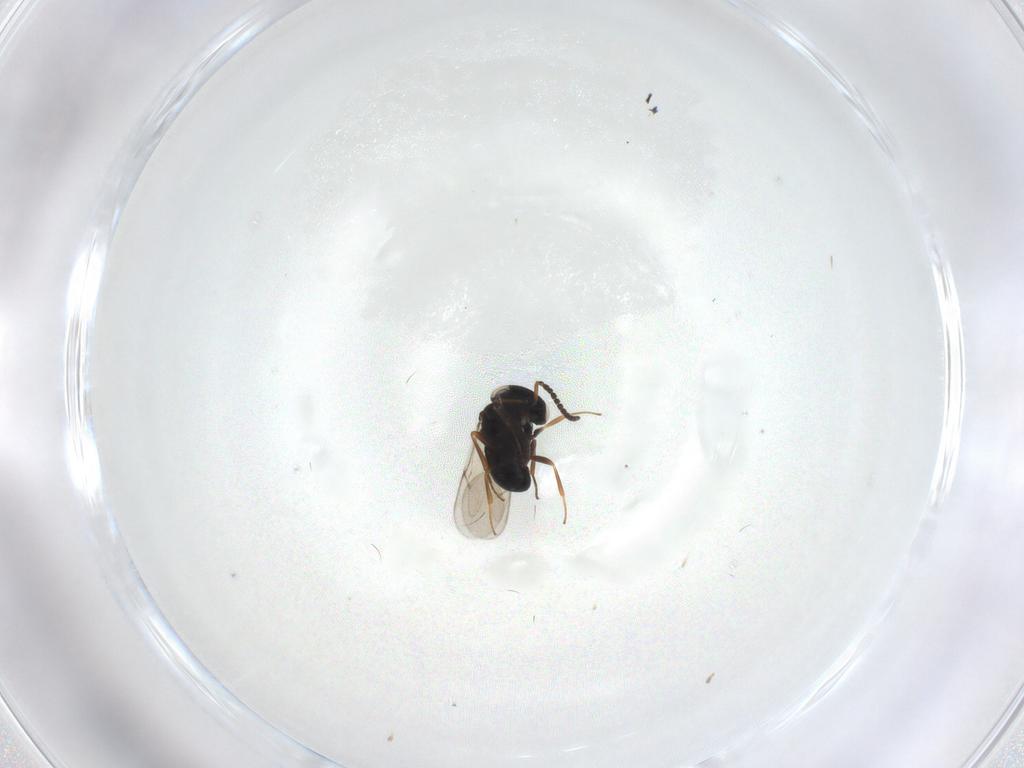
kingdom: Animalia
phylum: Arthropoda
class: Insecta
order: Hymenoptera
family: Scelionidae
